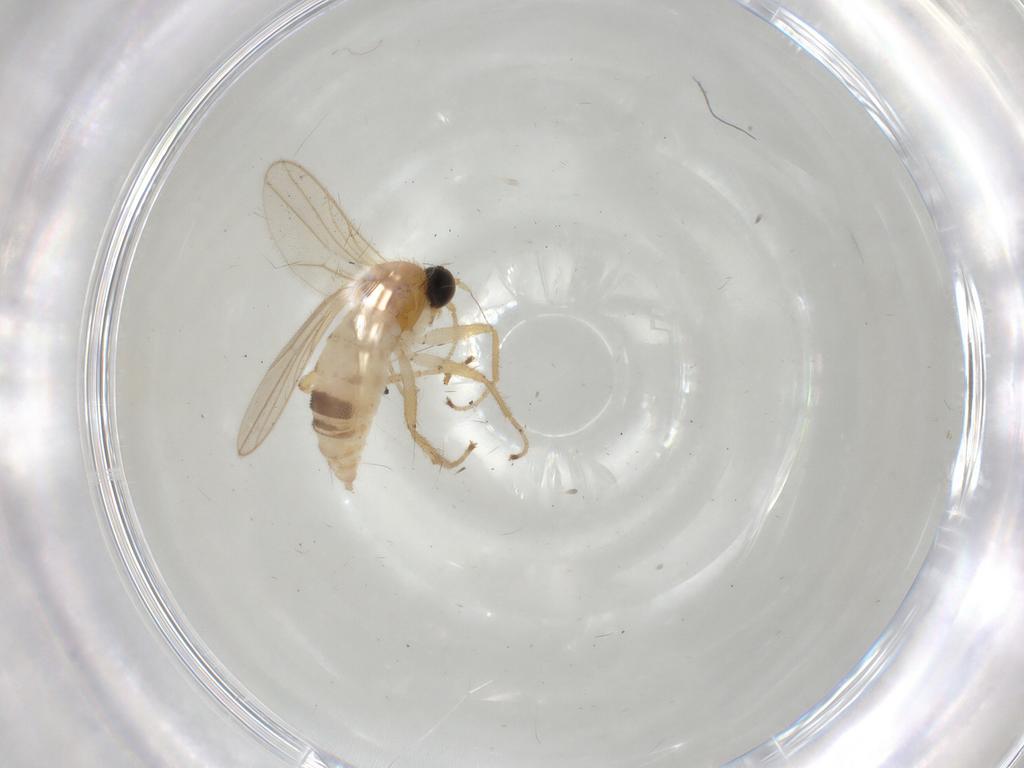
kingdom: Animalia
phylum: Arthropoda
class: Insecta
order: Diptera
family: Hybotidae
